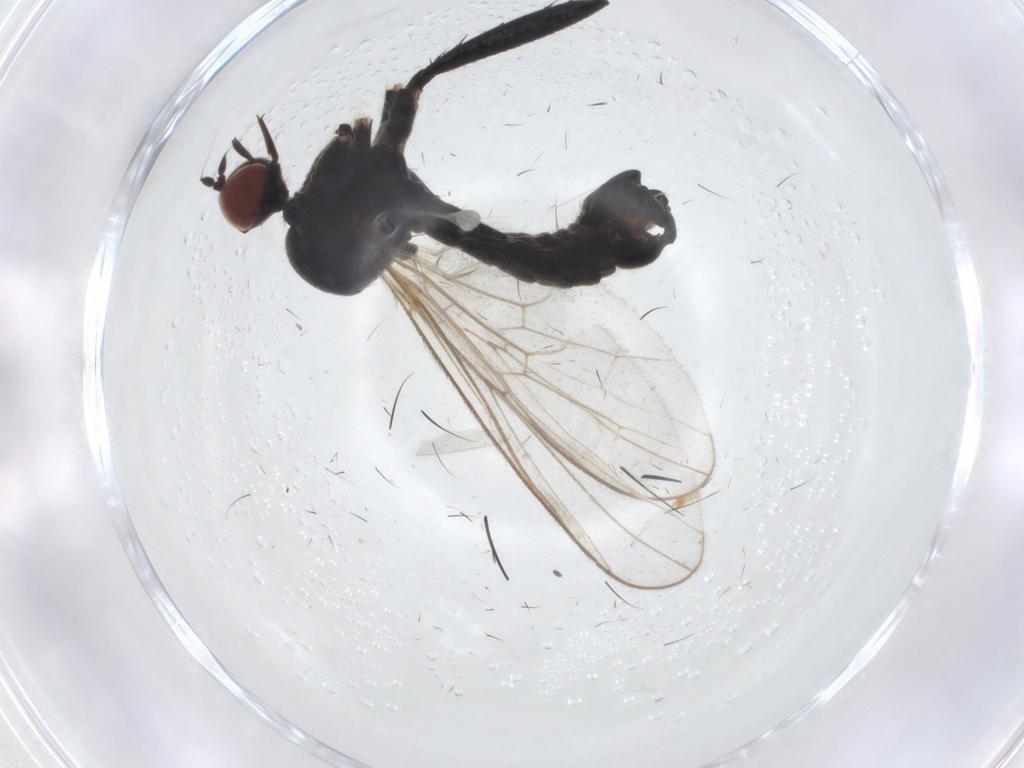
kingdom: Animalia
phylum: Arthropoda
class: Insecta
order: Diptera
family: Hybotidae
